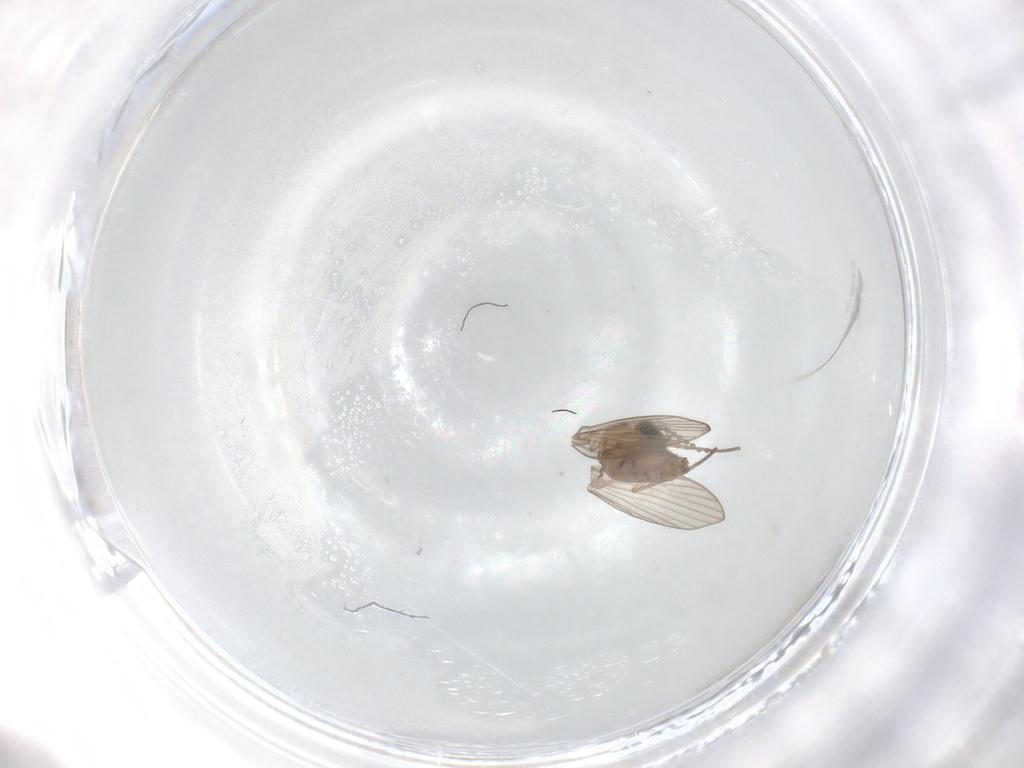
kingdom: Animalia
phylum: Arthropoda
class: Insecta
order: Diptera
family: Psychodidae
